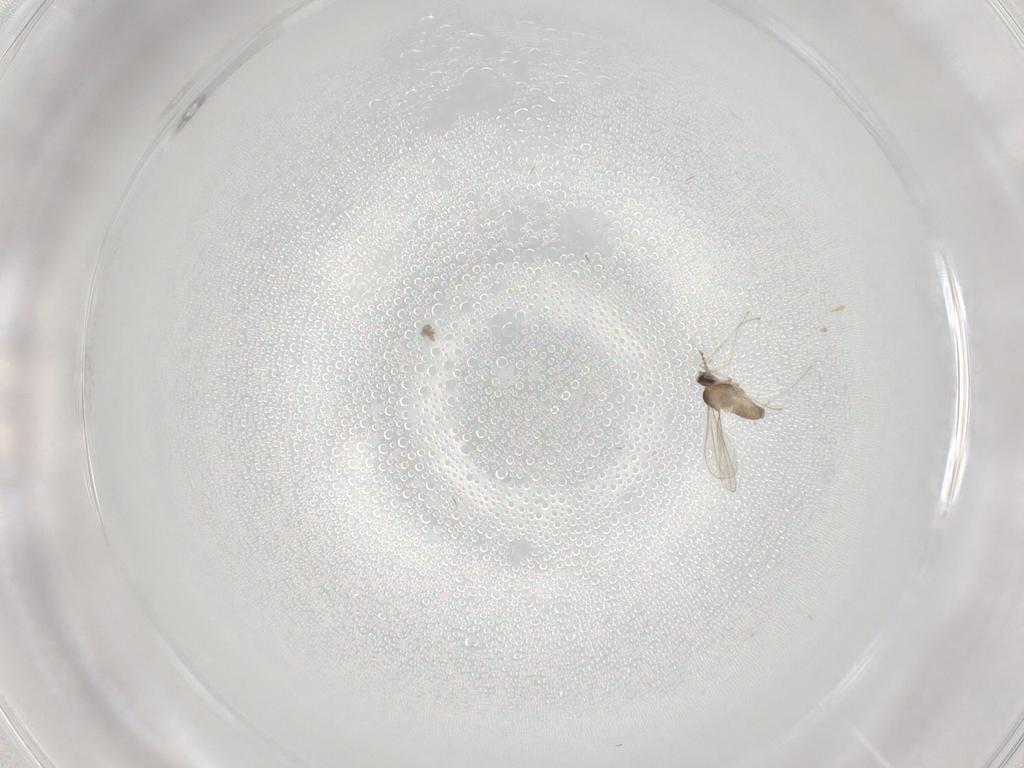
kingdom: Animalia
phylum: Arthropoda
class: Insecta
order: Diptera
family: Cecidomyiidae
